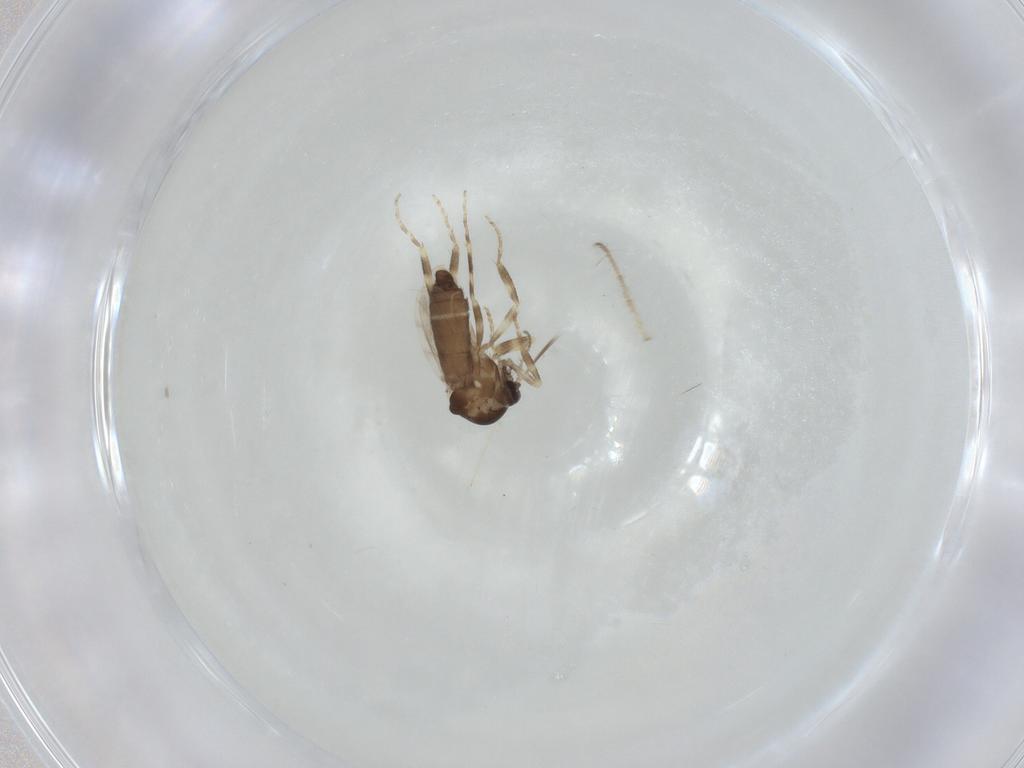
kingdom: Animalia
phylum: Arthropoda
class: Insecta
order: Diptera
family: Ceratopogonidae
